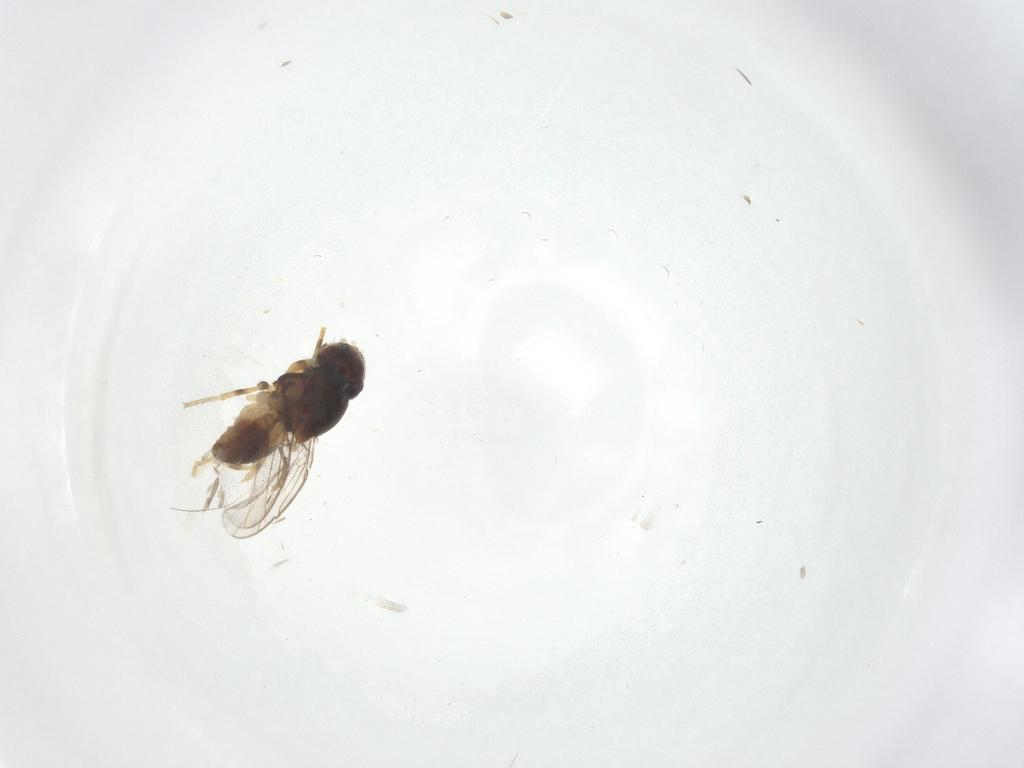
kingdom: Animalia
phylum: Arthropoda
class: Insecta
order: Diptera
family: Chloropidae
